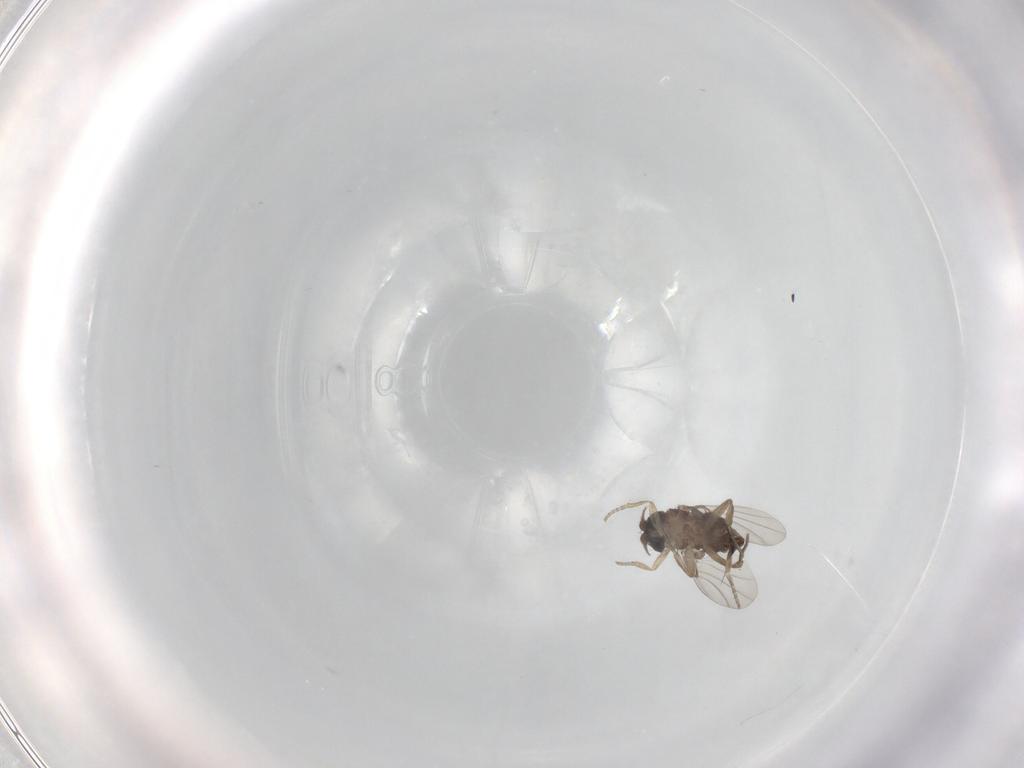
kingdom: Animalia
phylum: Arthropoda
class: Insecta
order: Diptera
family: Phoridae
